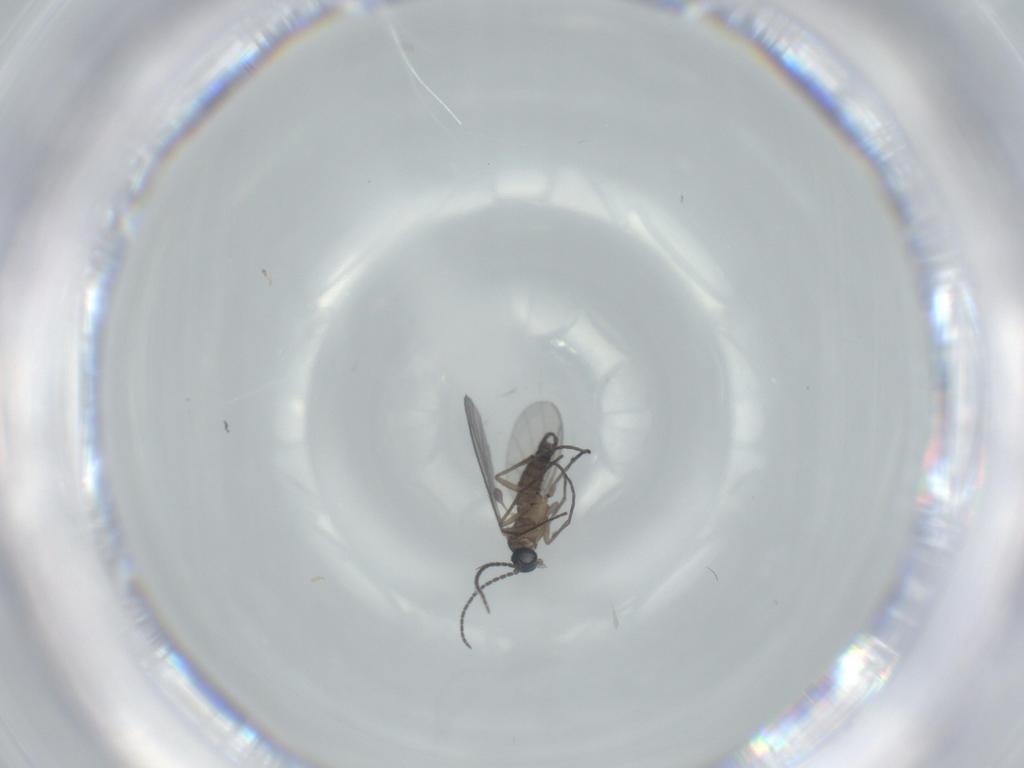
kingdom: Animalia
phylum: Arthropoda
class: Insecta
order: Diptera
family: Sciaridae
